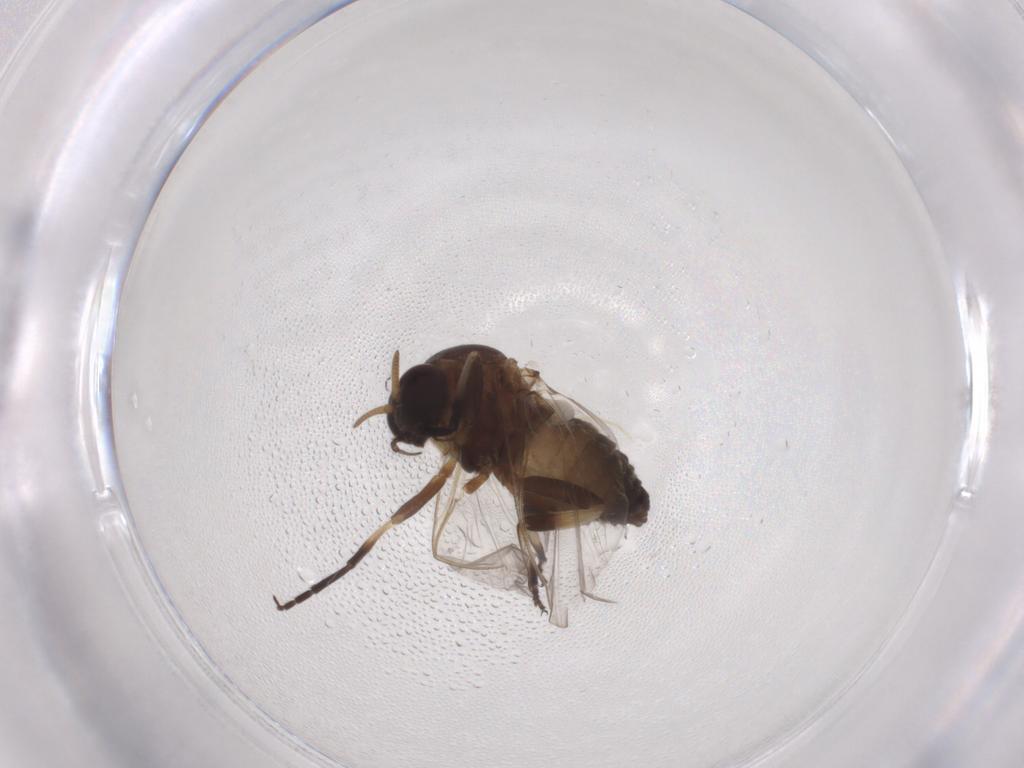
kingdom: Animalia
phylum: Arthropoda
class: Insecta
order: Diptera
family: Simuliidae
